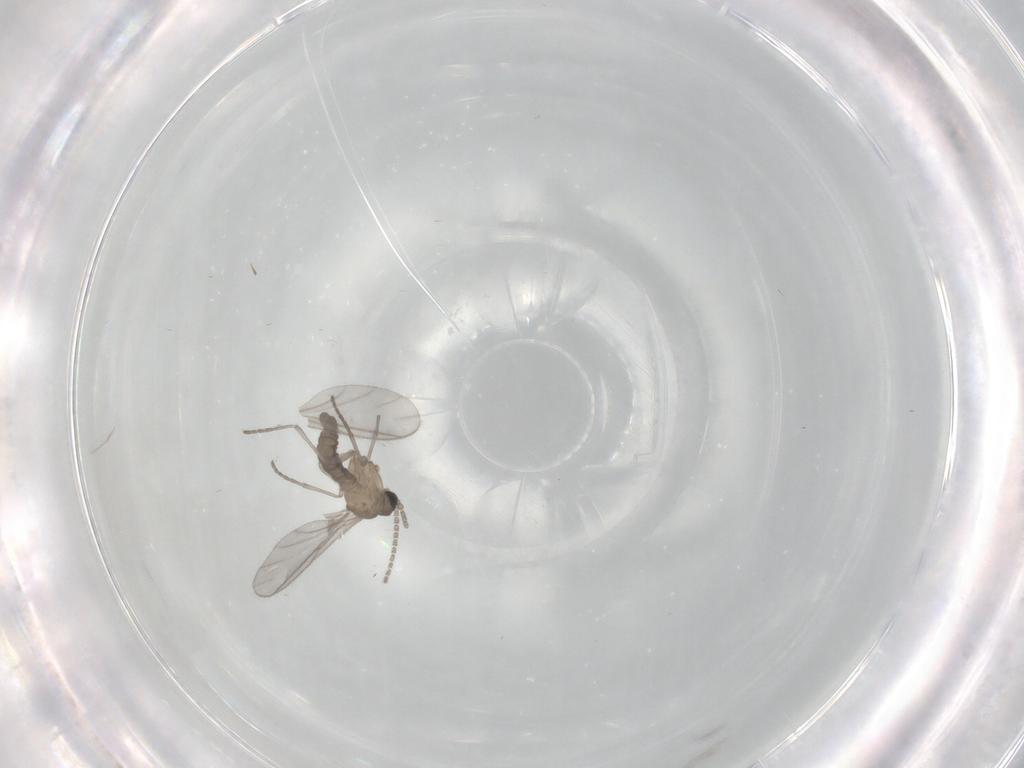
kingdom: Animalia
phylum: Arthropoda
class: Insecta
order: Diptera
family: Sciaridae
